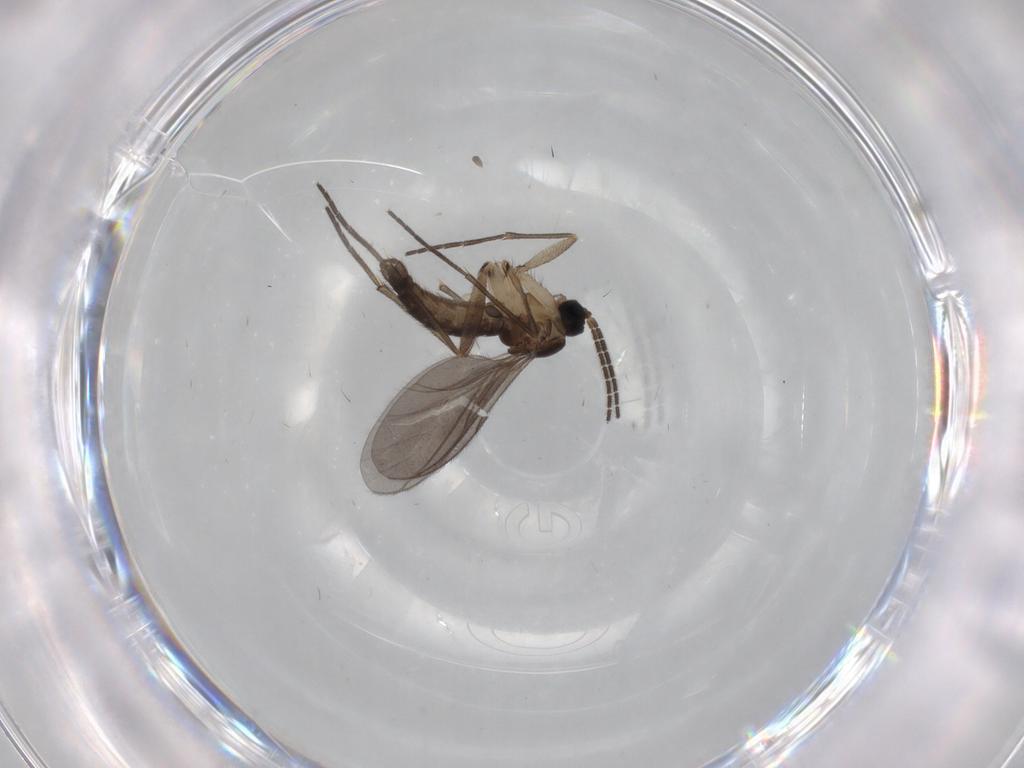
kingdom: Animalia
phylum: Arthropoda
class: Insecta
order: Diptera
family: Sciaridae
